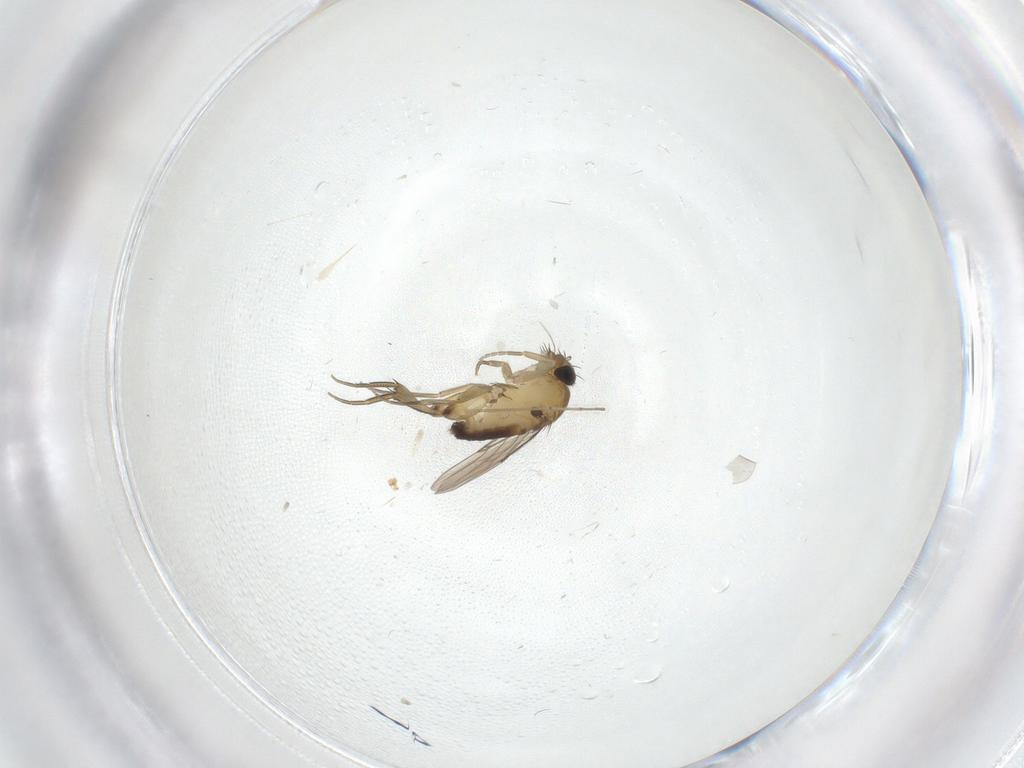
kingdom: Animalia
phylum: Arthropoda
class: Insecta
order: Diptera
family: Phoridae
